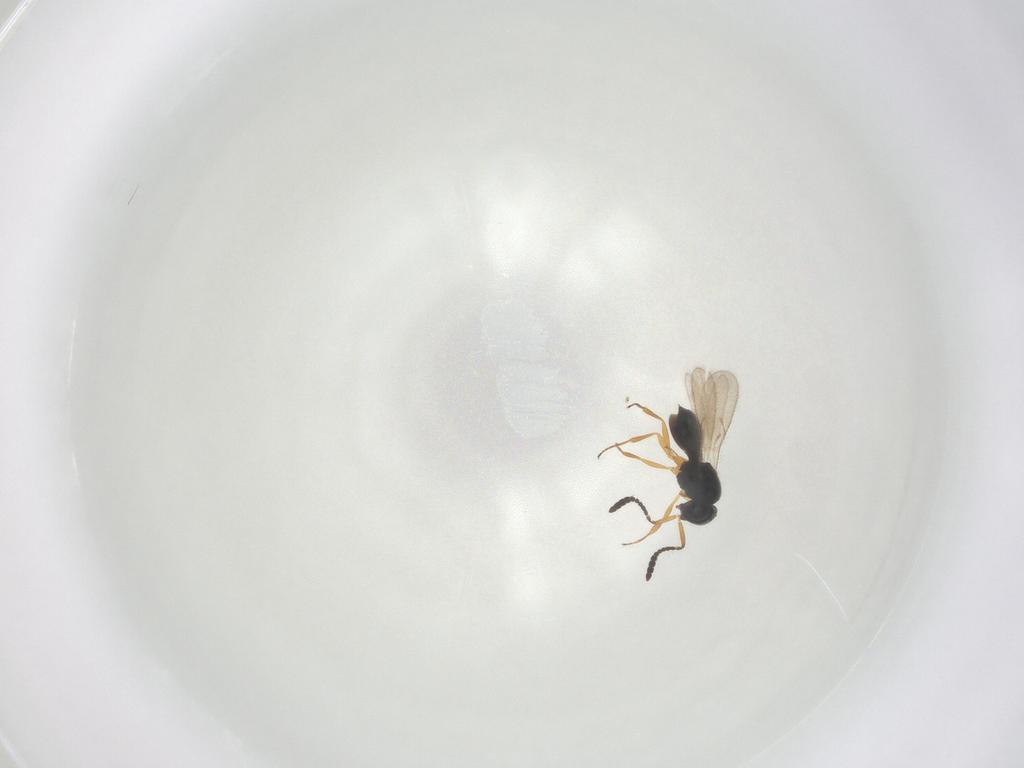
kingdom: Animalia
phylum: Arthropoda
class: Insecta
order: Hymenoptera
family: Scelionidae
